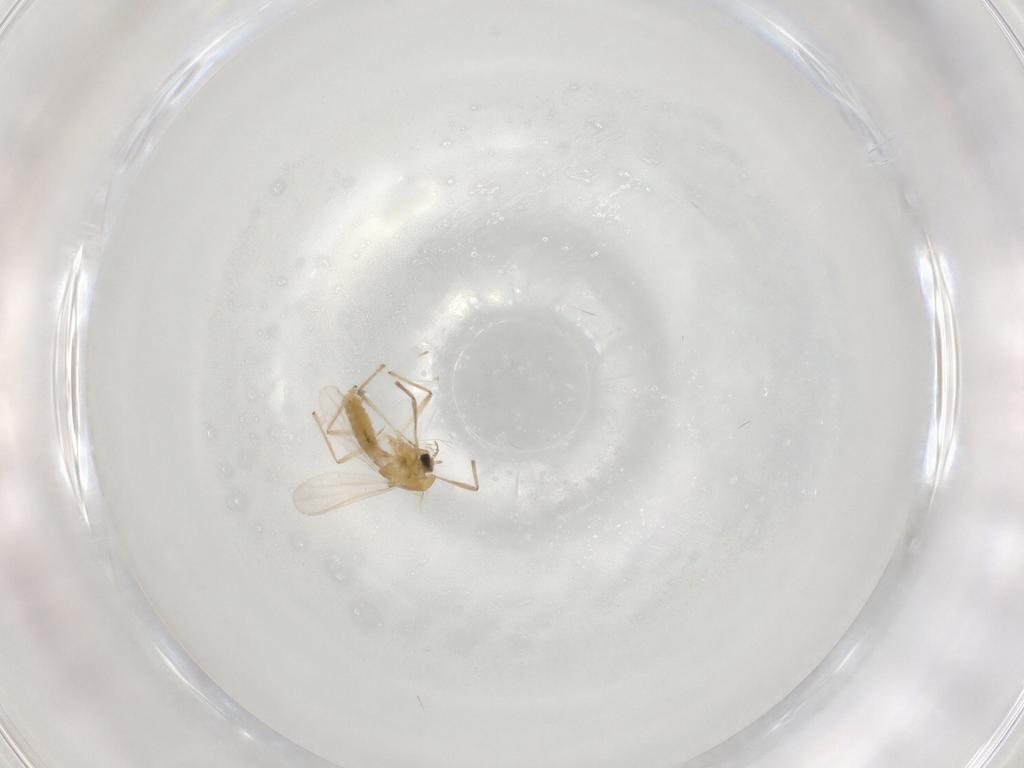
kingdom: Animalia
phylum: Arthropoda
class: Insecta
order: Diptera
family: Chironomidae
